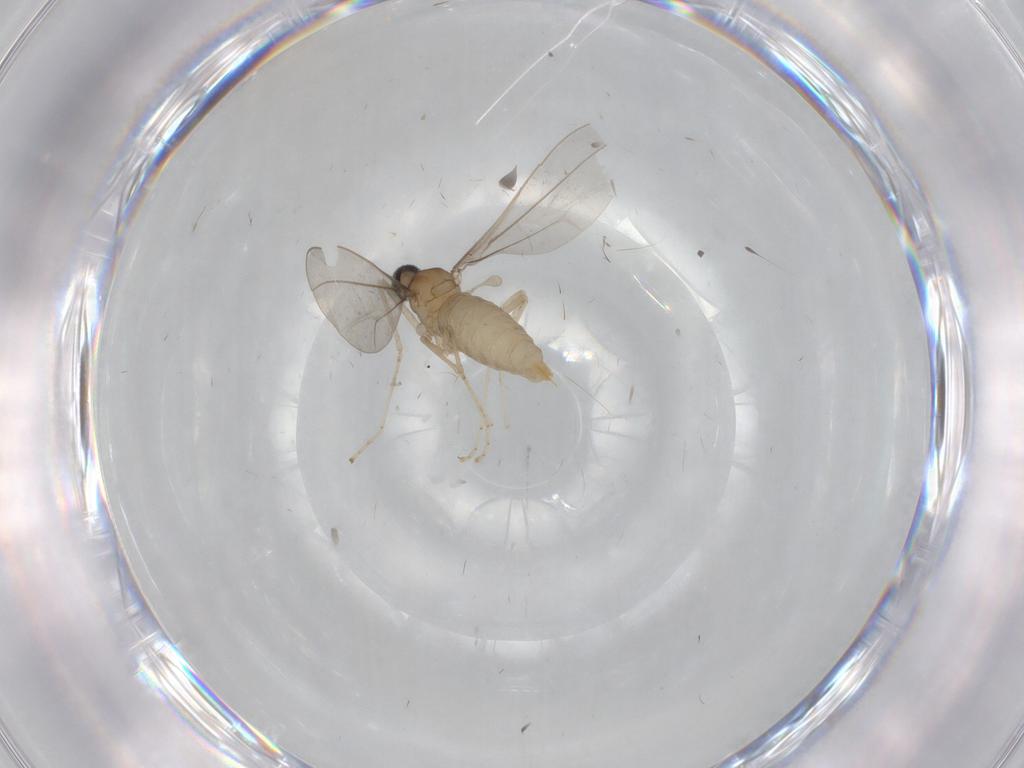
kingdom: Animalia
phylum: Arthropoda
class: Insecta
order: Diptera
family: Cecidomyiidae
